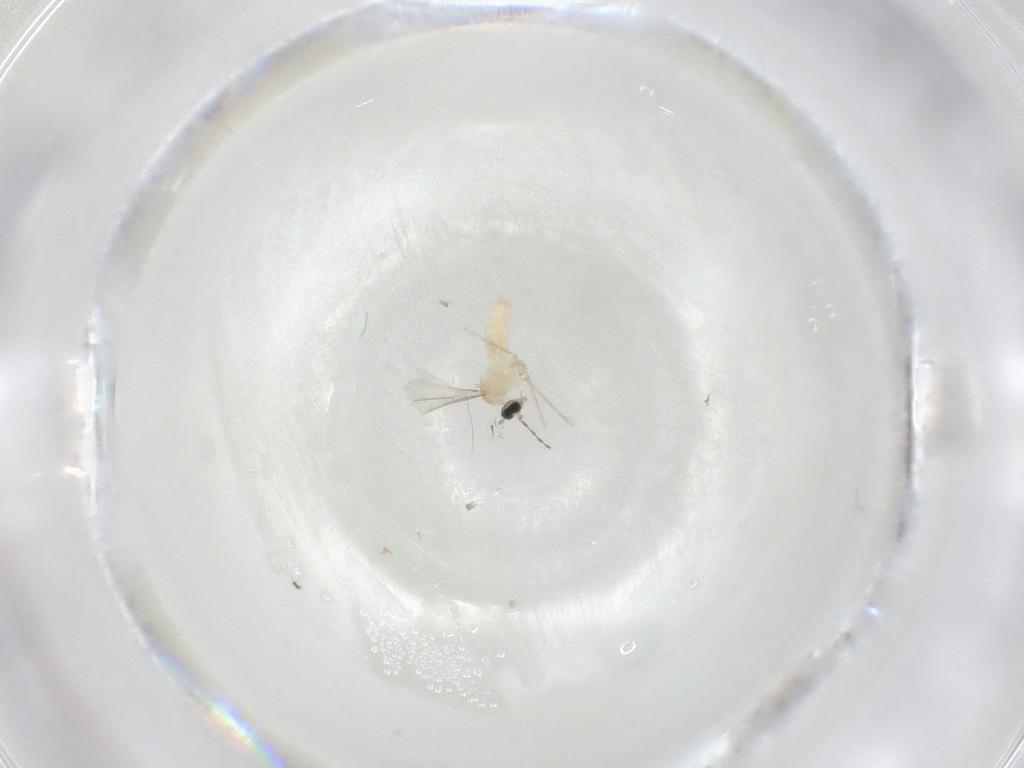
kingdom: Animalia
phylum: Arthropoda
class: Insecta
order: Diptera
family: Cecidomyiidae
